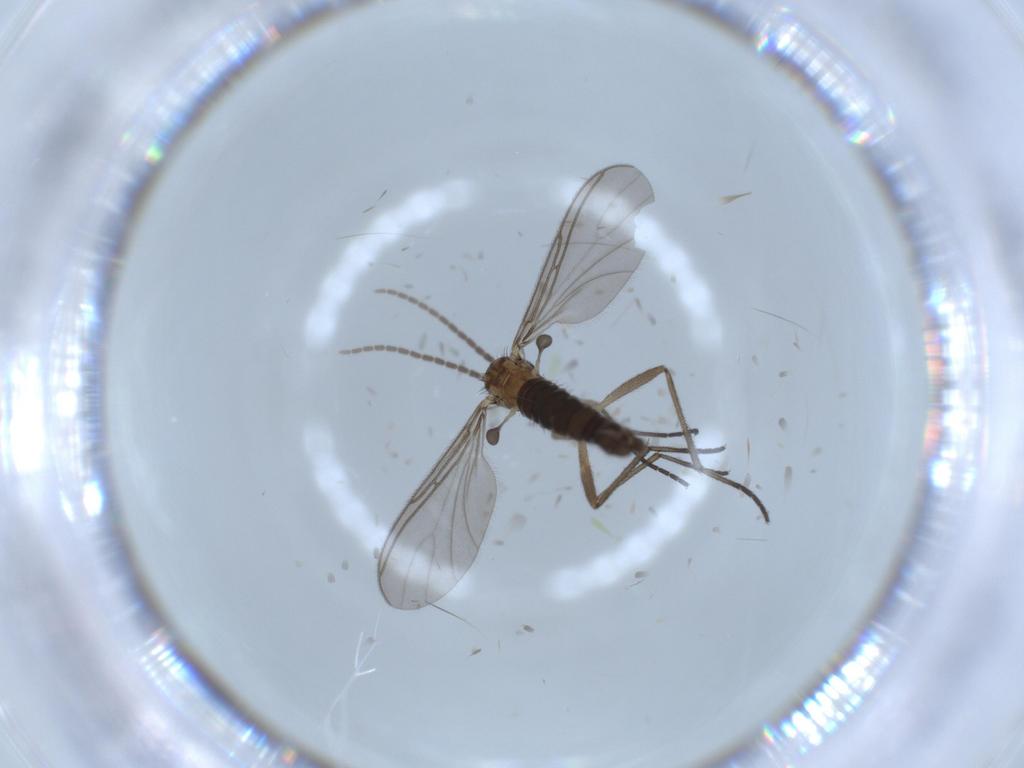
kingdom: Animalia
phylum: Arthropoda
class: Insecta
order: Diptera
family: Sciaridae
